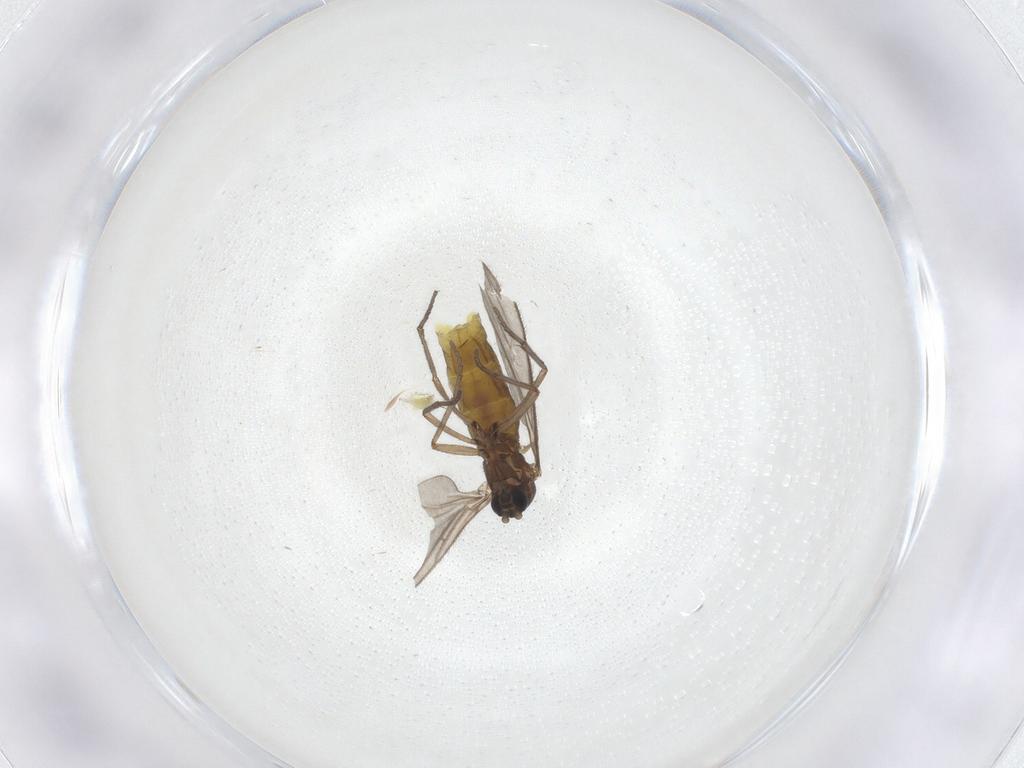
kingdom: Animalia
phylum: Arthropoda
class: Insecta
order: Diptera
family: Sciaridae
